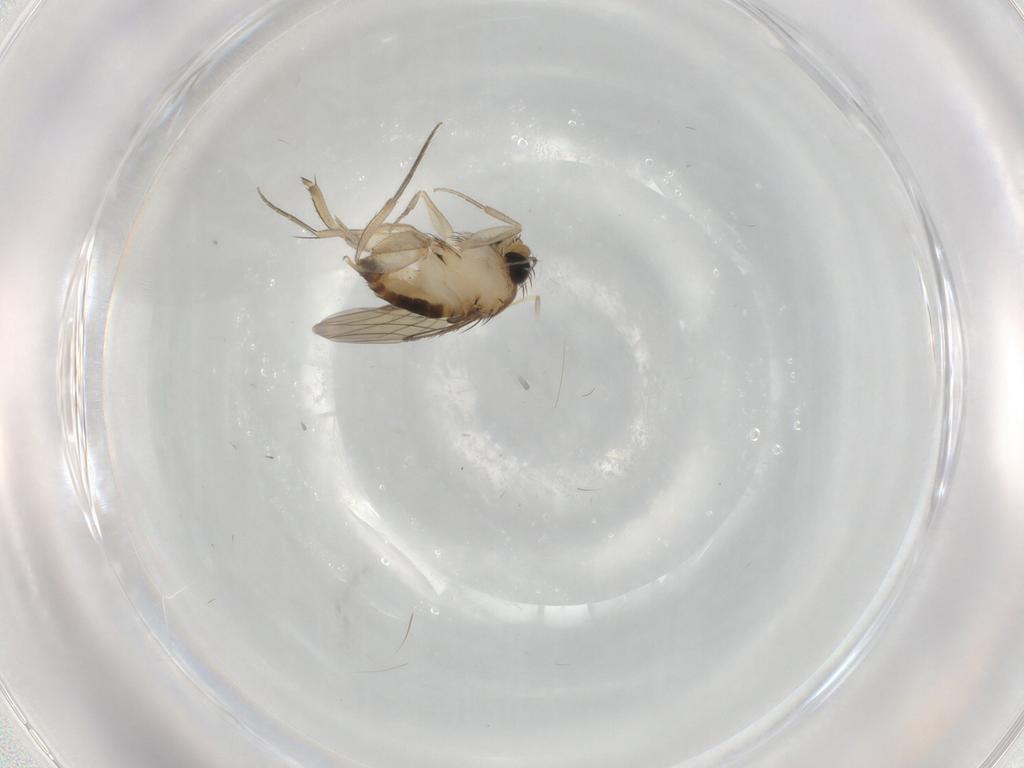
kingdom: Animalia
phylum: Arthropoda
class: Insecta
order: Diptera
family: Phoridae
